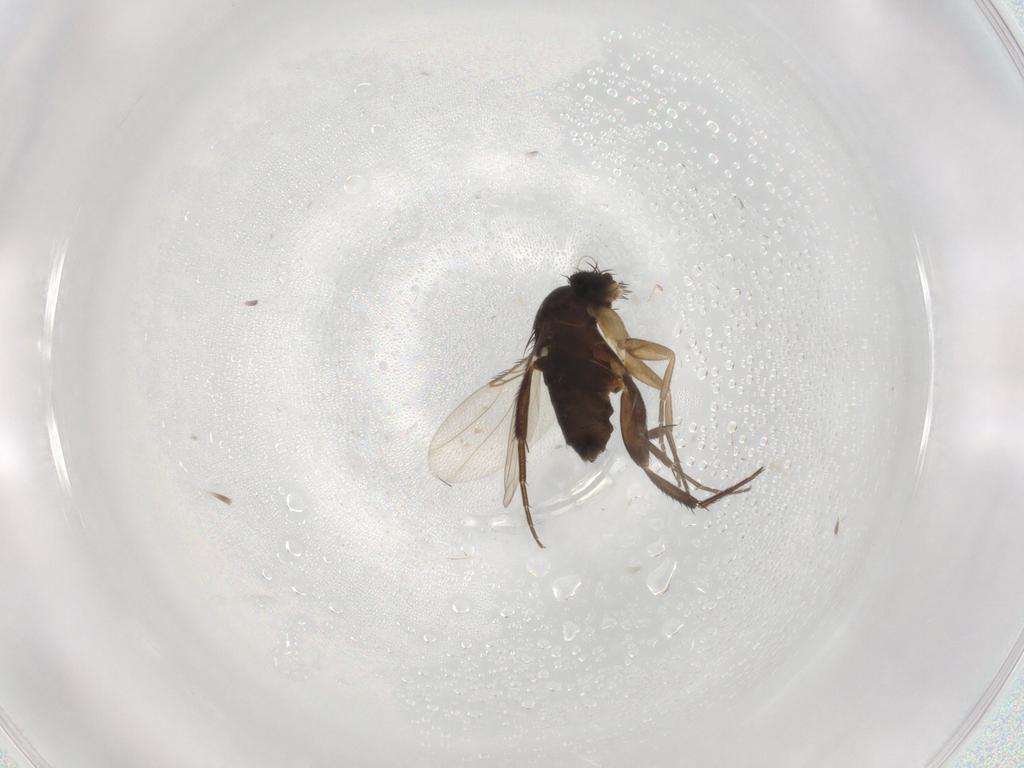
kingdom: Animalia
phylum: Arthropoda
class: Insecta
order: Diptera
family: Phoridae
